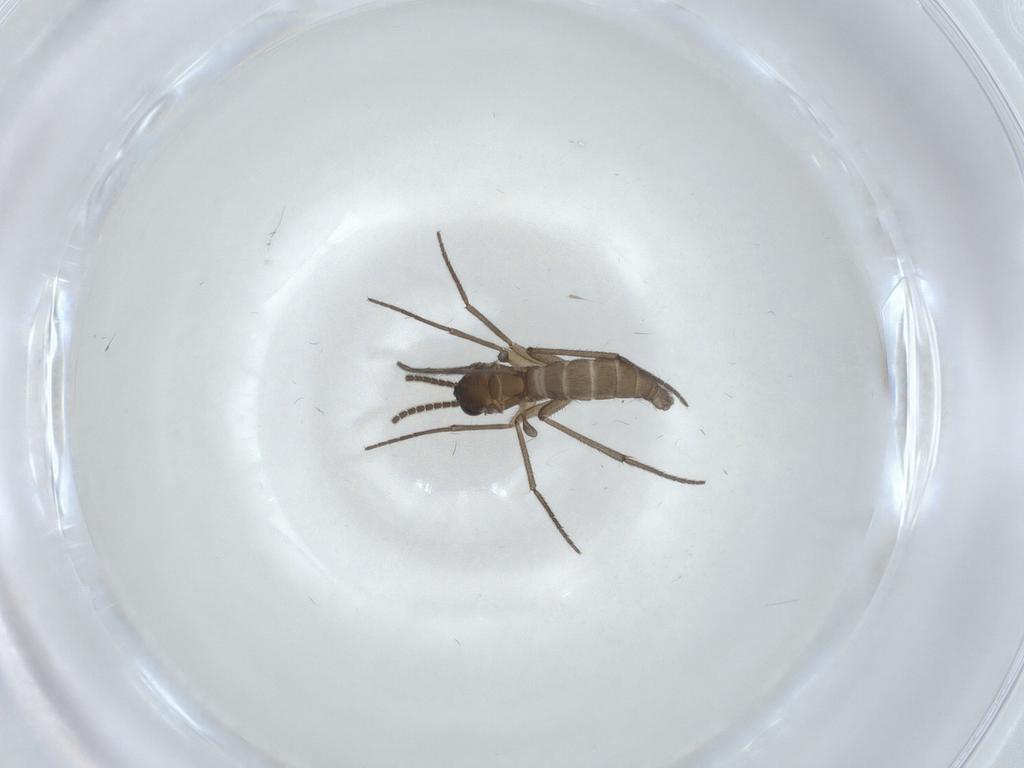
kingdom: Animalia
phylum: Arthropoda
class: Insecta
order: Diptera
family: Sciaridae
